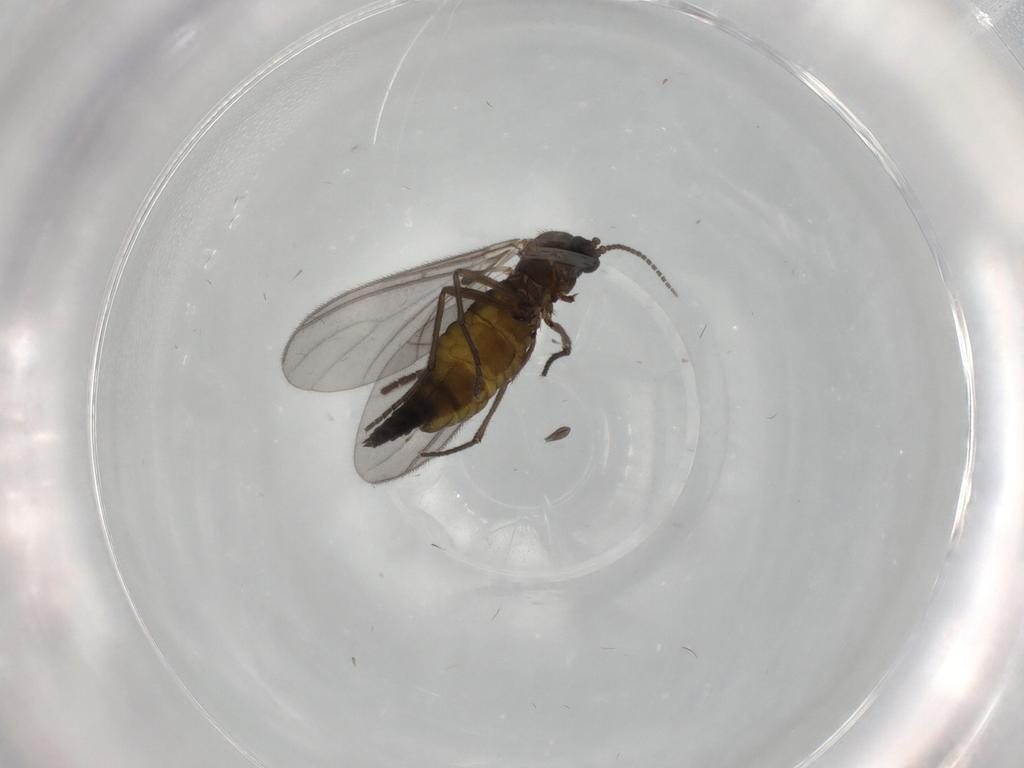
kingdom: Animalia
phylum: Arthropoda
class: Insecta
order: Diptera
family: Sciaridae
